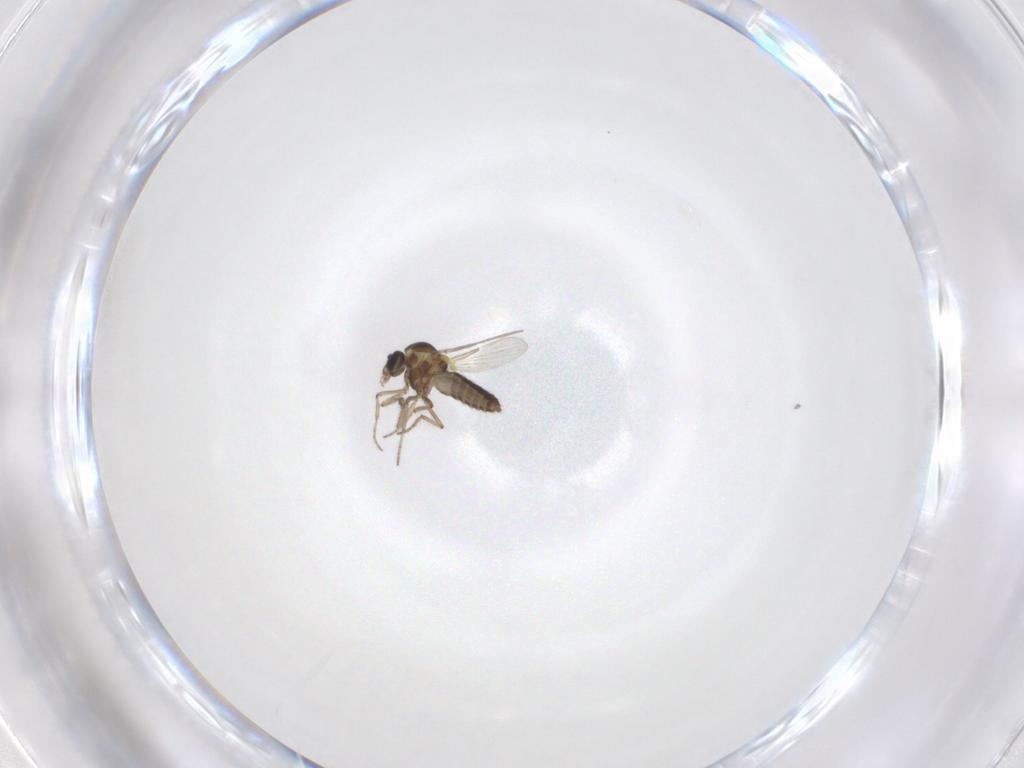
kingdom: Animalia
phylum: Arthropoda
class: Insecta
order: Diptera
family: Ceratopogonidae
